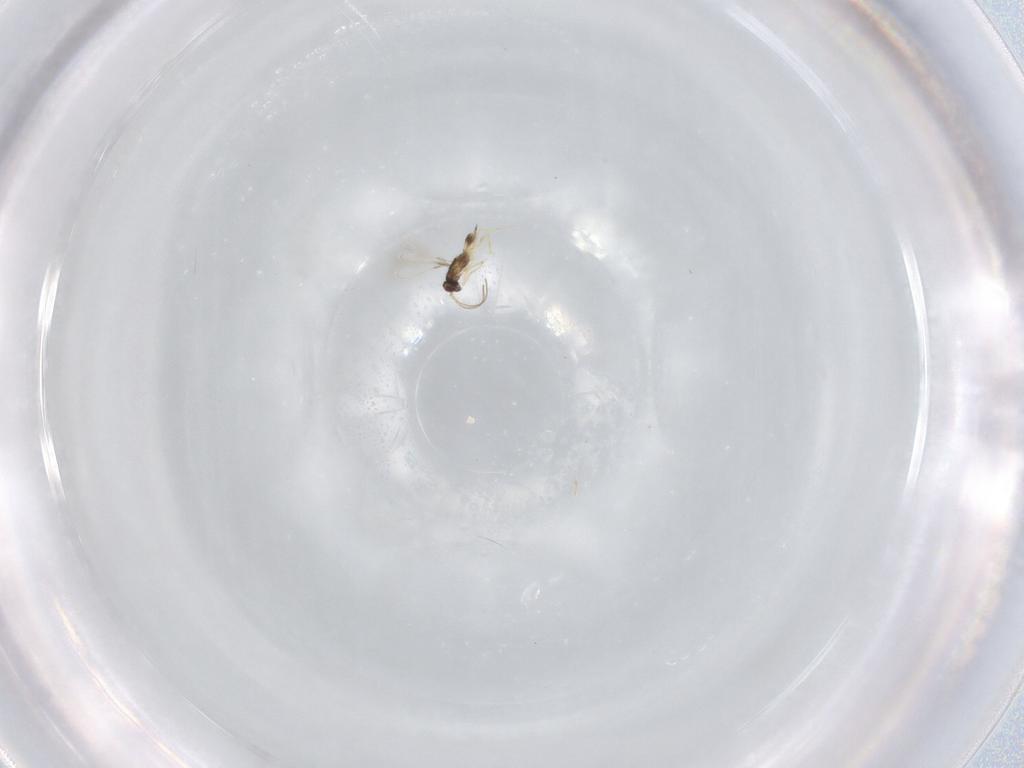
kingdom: Animalia
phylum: Arthropoda
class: Insecta
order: Hymenoptera
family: Mymaridae
